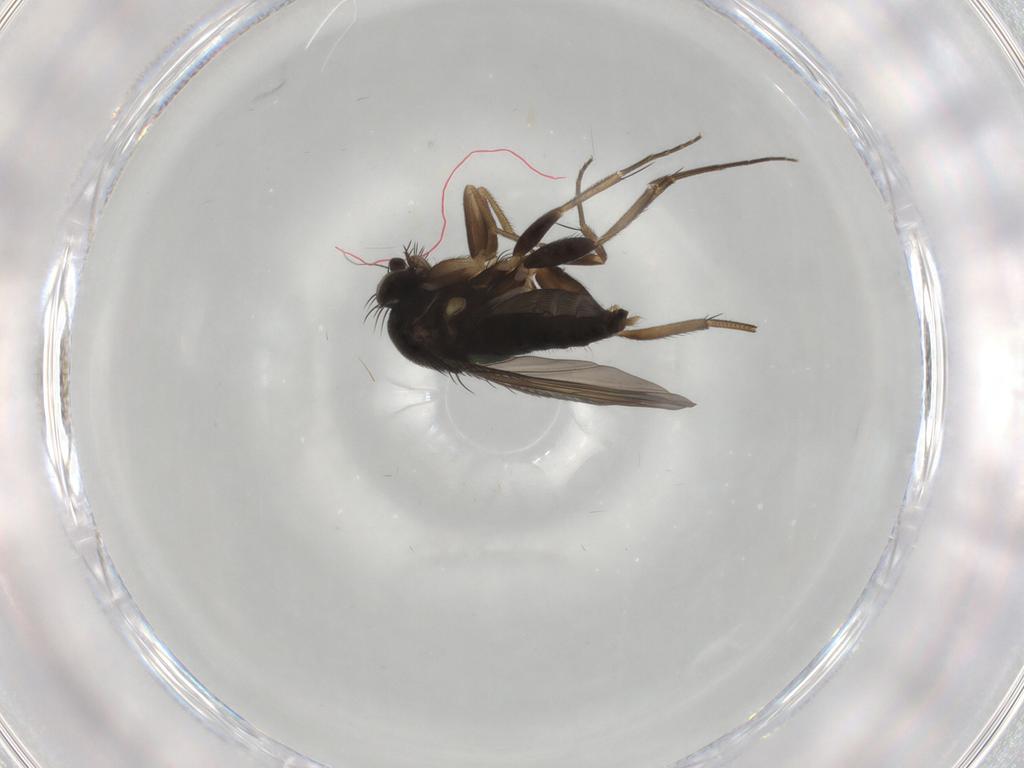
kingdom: Animalia
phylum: Arthropoda
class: Insecta
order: Diptera
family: Phoridae
